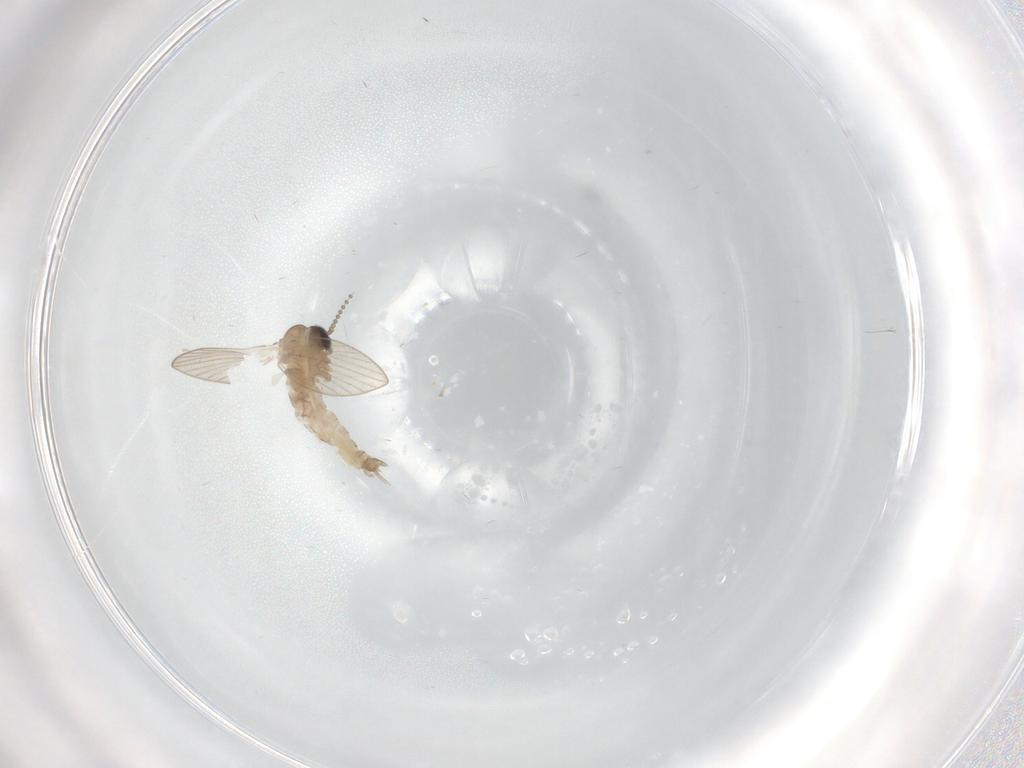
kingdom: Animalia
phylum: Arthropoda
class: Insecta
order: Diptera
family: Psychodidae
